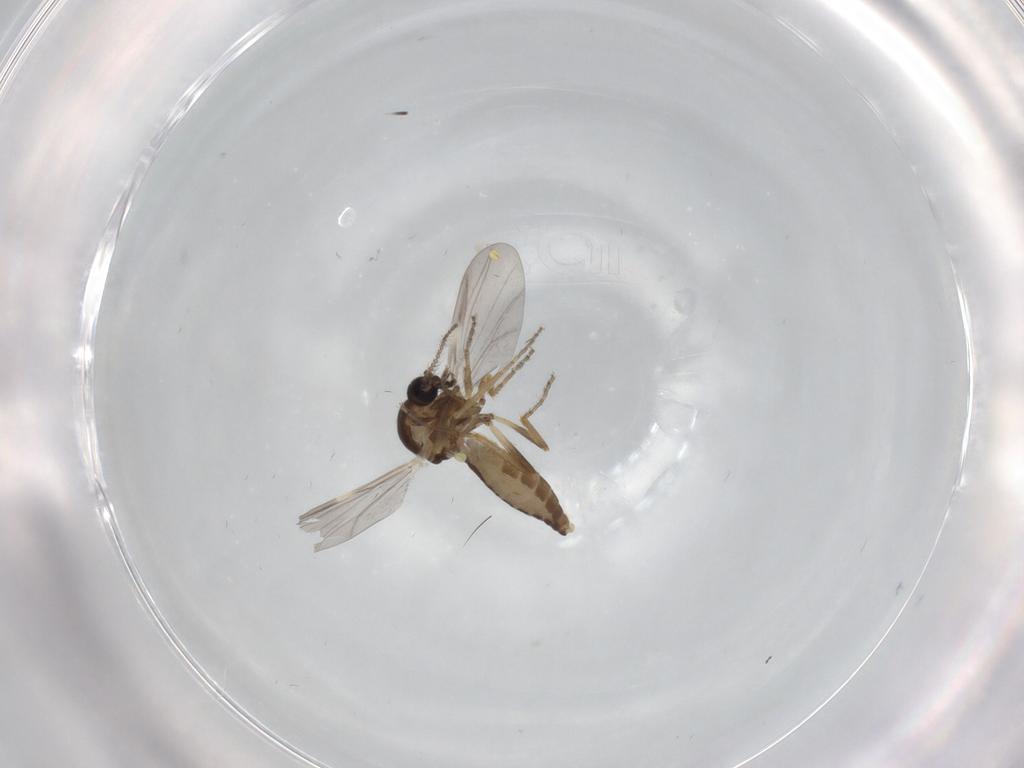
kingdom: Animalia
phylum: Arthropoda
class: Insecta
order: Diptera
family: Ceratopogonidae
